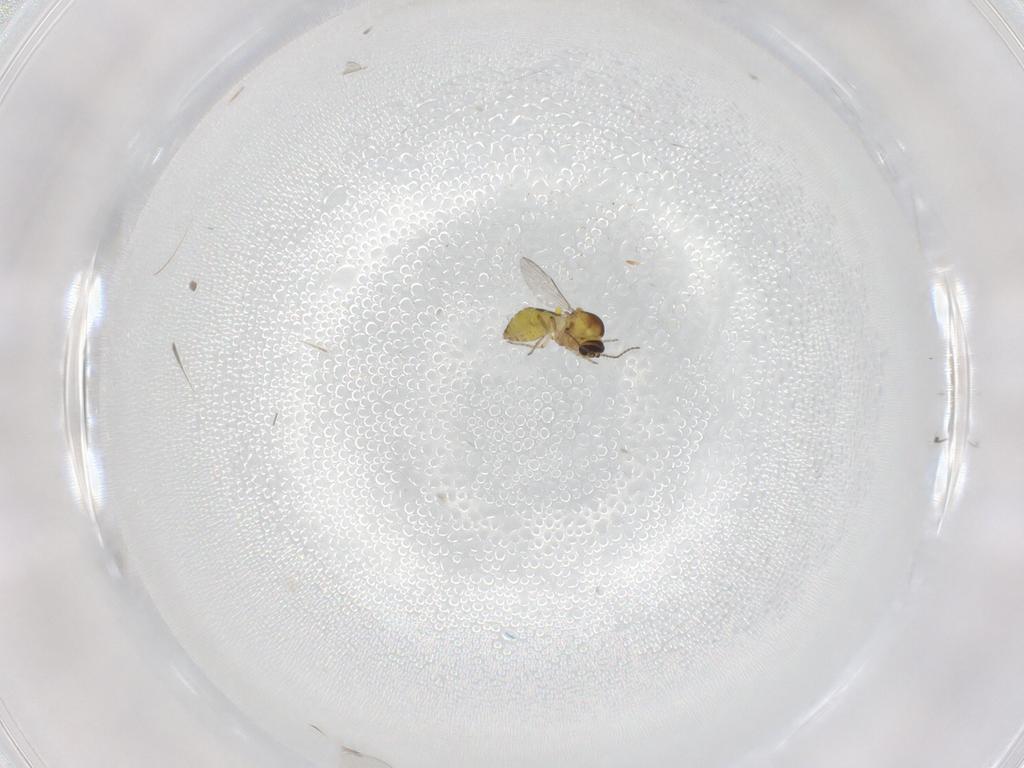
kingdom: Animalia
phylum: Arthropoda
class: Insecta
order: Diptera
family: Ceratopogonidae
